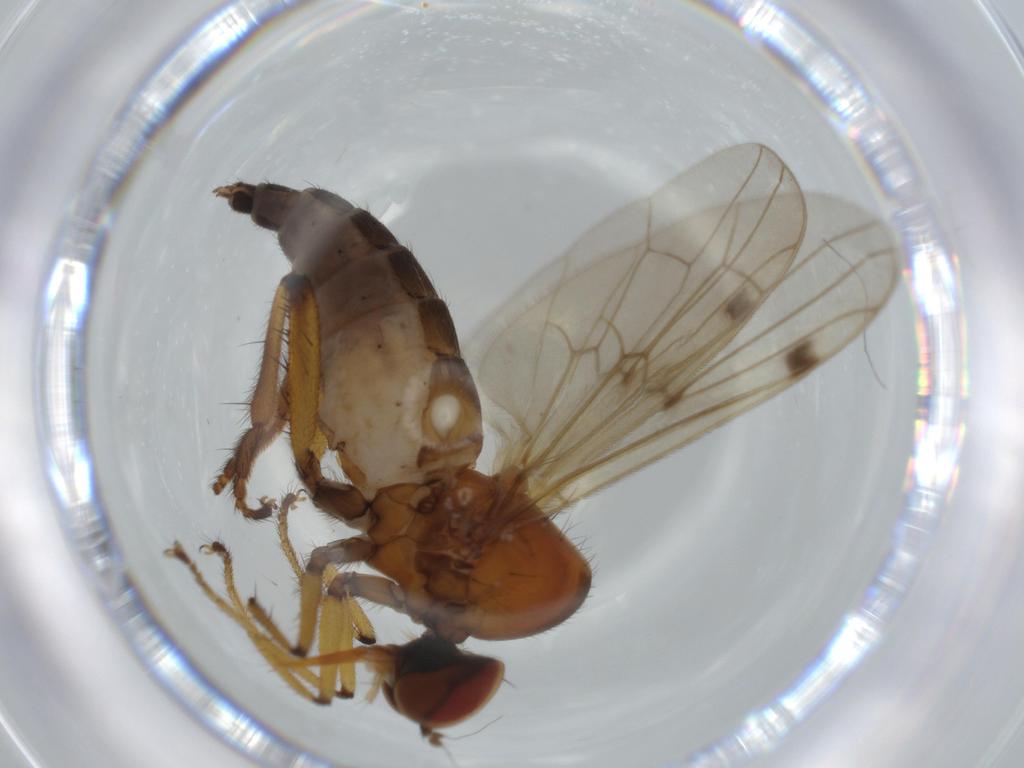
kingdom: Animalia
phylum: Arthropoda
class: Insecta
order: Diptera
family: Hybotidae
